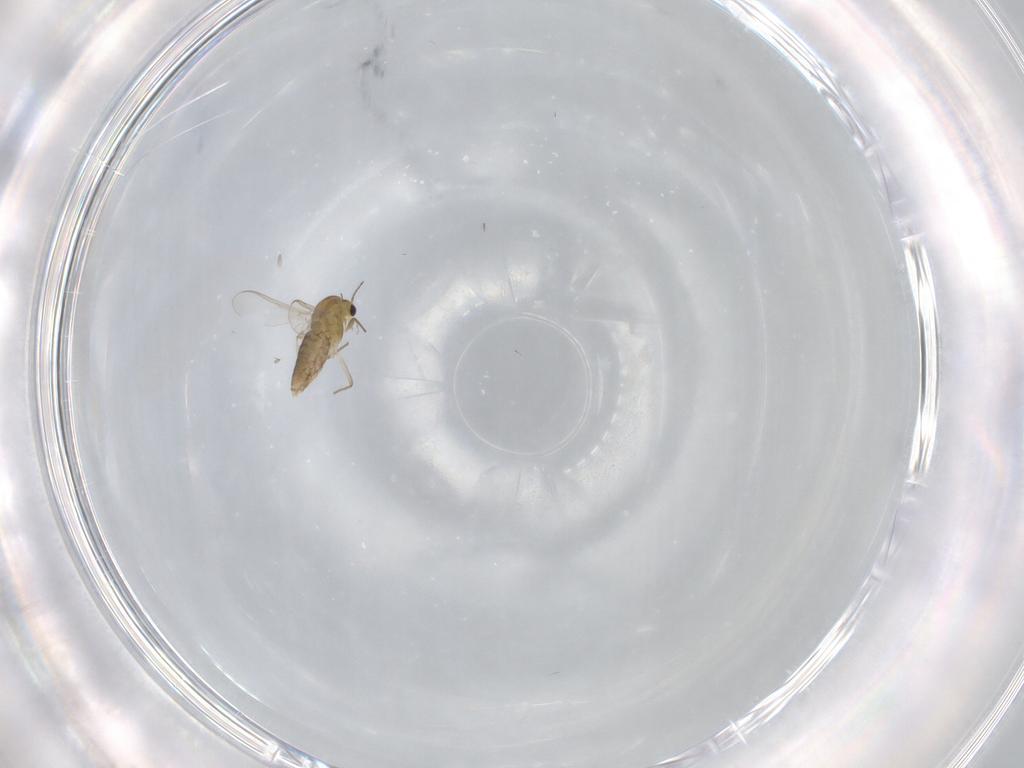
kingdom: Animalia
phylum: Arthropoda
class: Insecta
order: Diptera
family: Chironomidae
